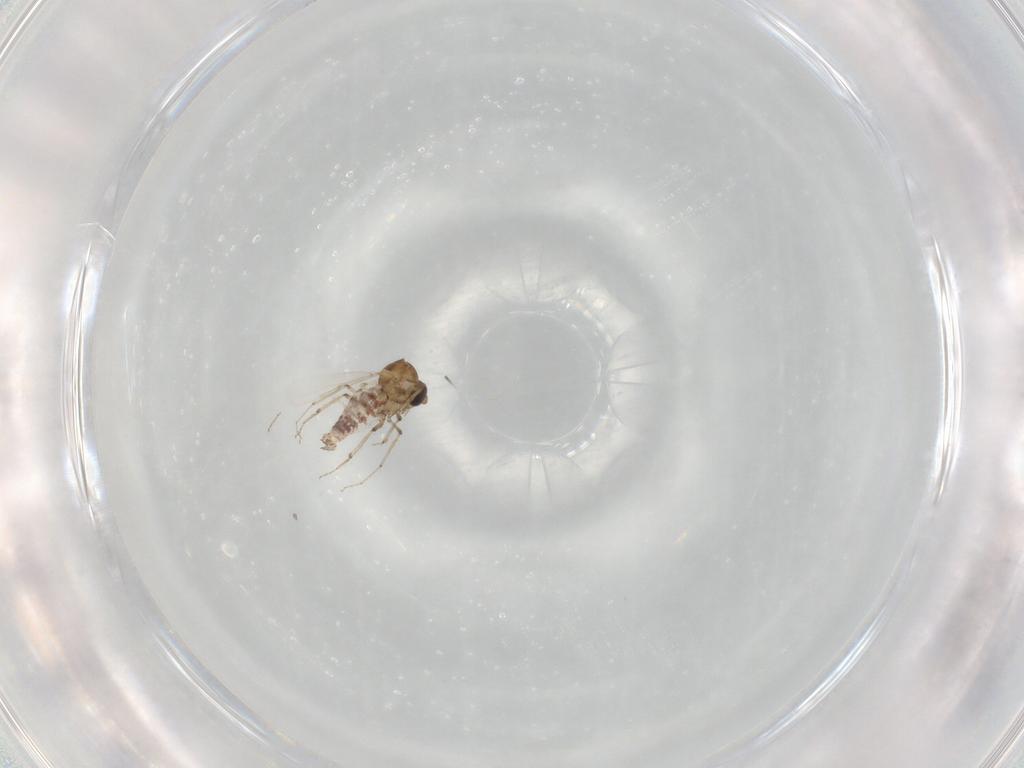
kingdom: Animalia
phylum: Arthropoda
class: Insecta
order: Diptera
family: Ceratopogonidae
